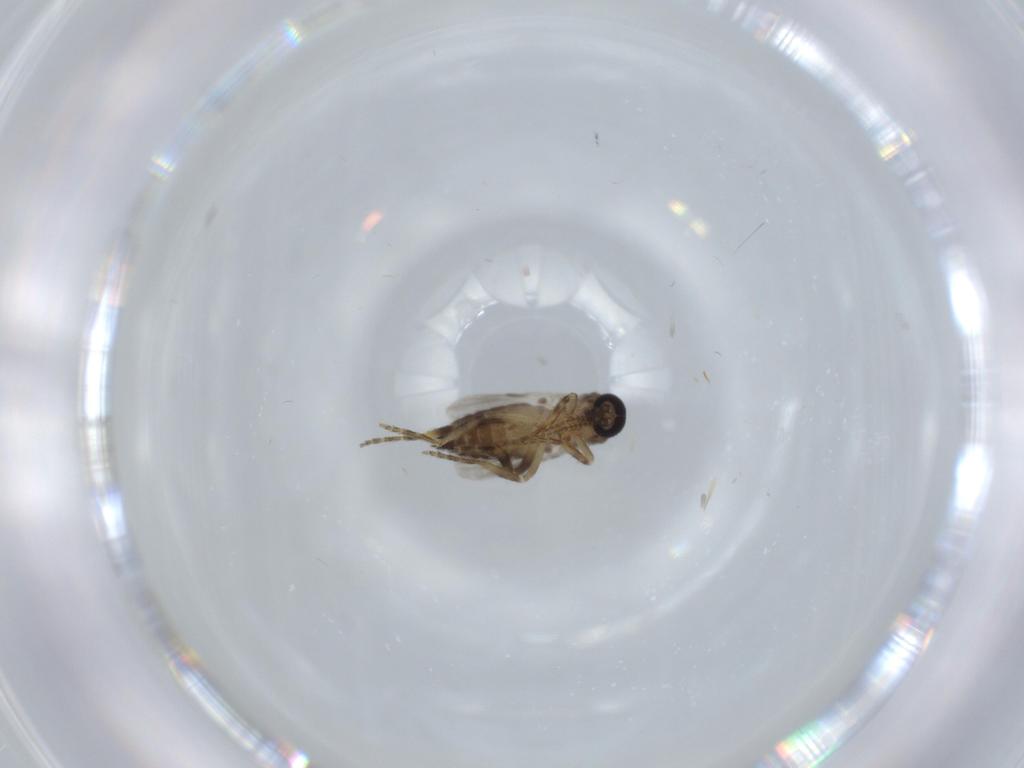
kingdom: Animalia
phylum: Arthropoda
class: Insecta
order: Diptera
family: Ceratopogonidae
